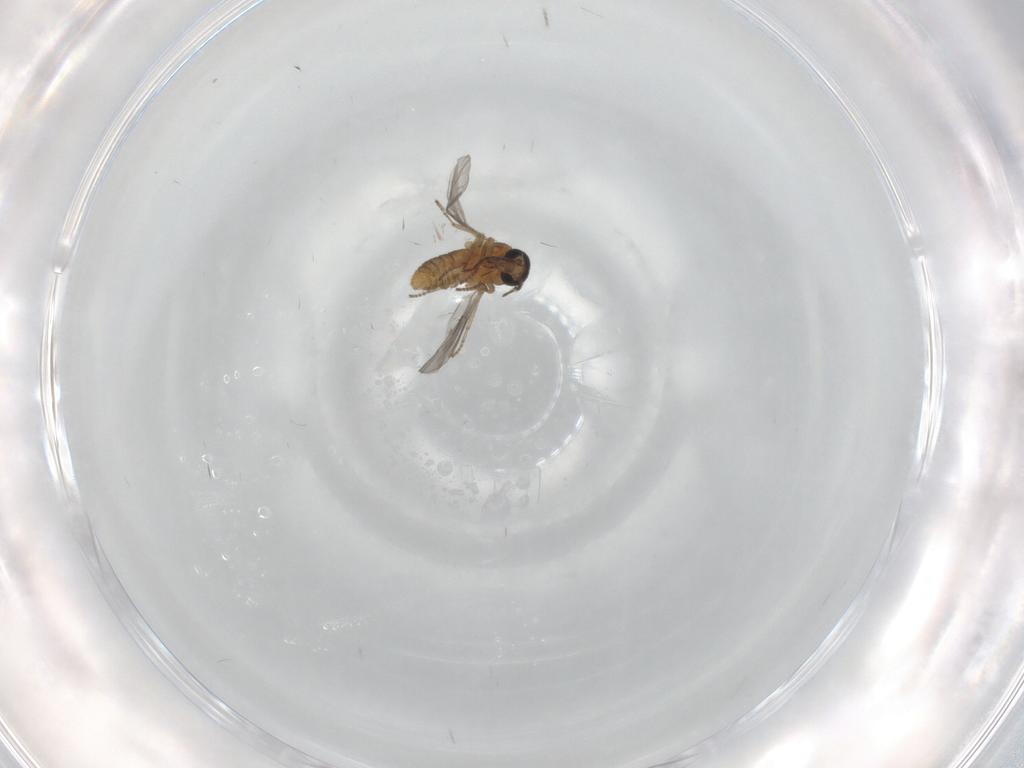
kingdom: Animalia
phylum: Arthropoda
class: Insecta
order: Diptera
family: Ceratopogonidae
